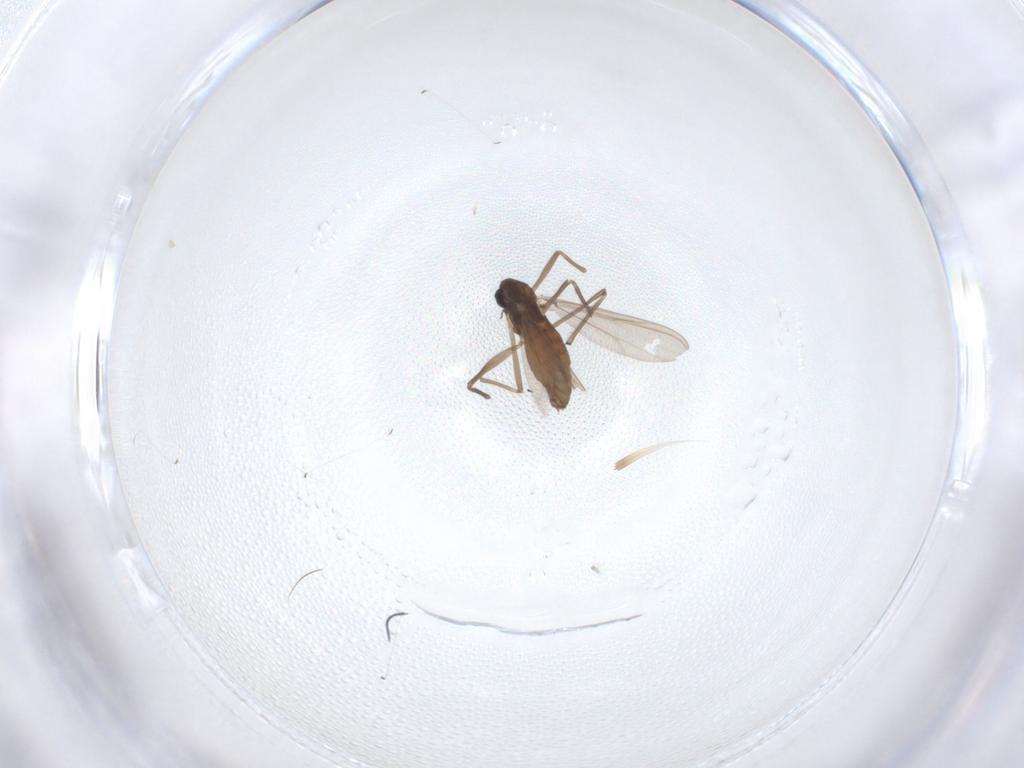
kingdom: Animalia
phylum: Arthropoda
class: Insecta
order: Diptera
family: Chironomidae
